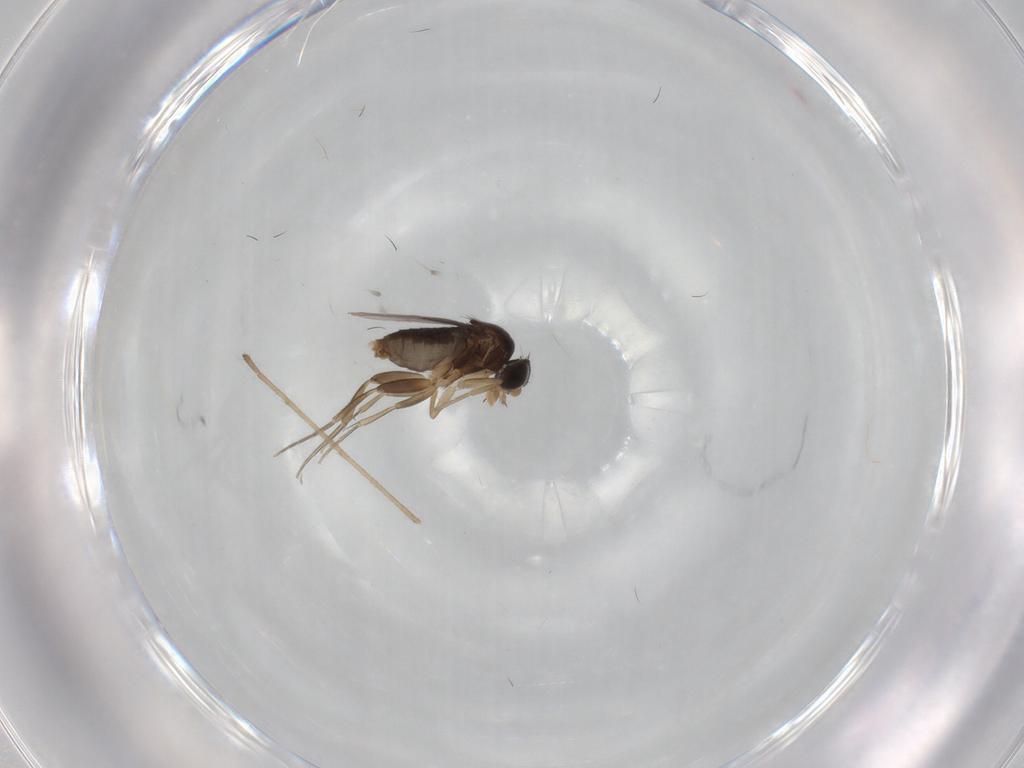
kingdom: Animalia
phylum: Arthropoda
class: Insecta
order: Diptera
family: Phoridae
